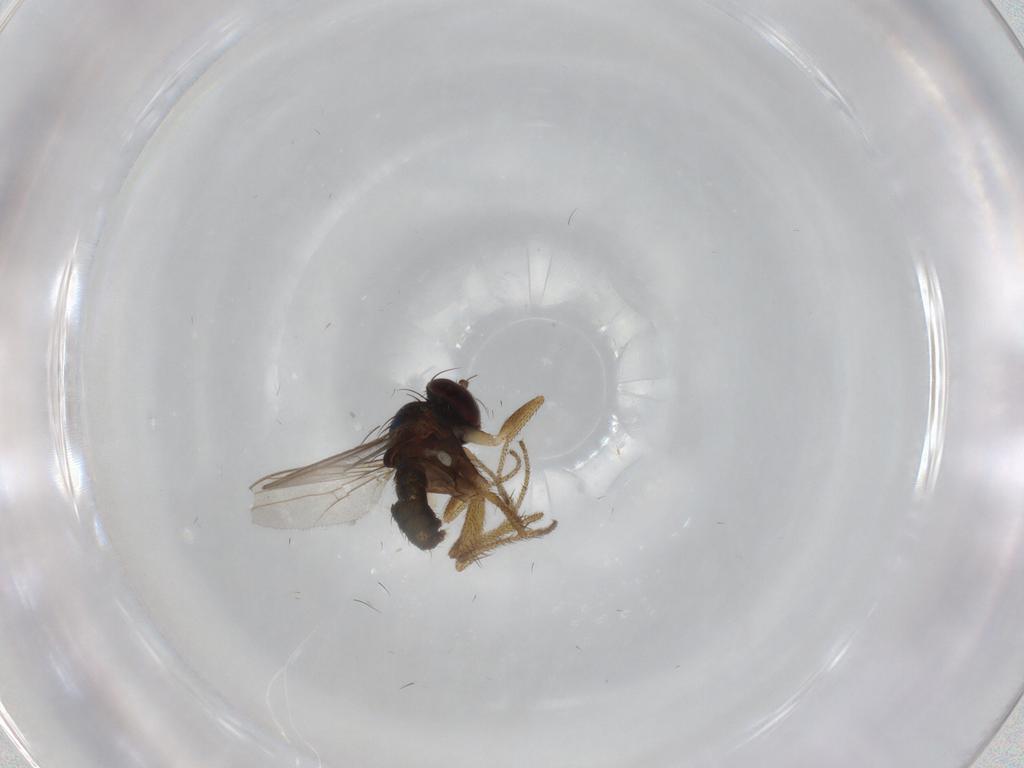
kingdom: Animalia
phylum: Arthropoda
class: Insecta
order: Diptera
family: Dolichopodidae
